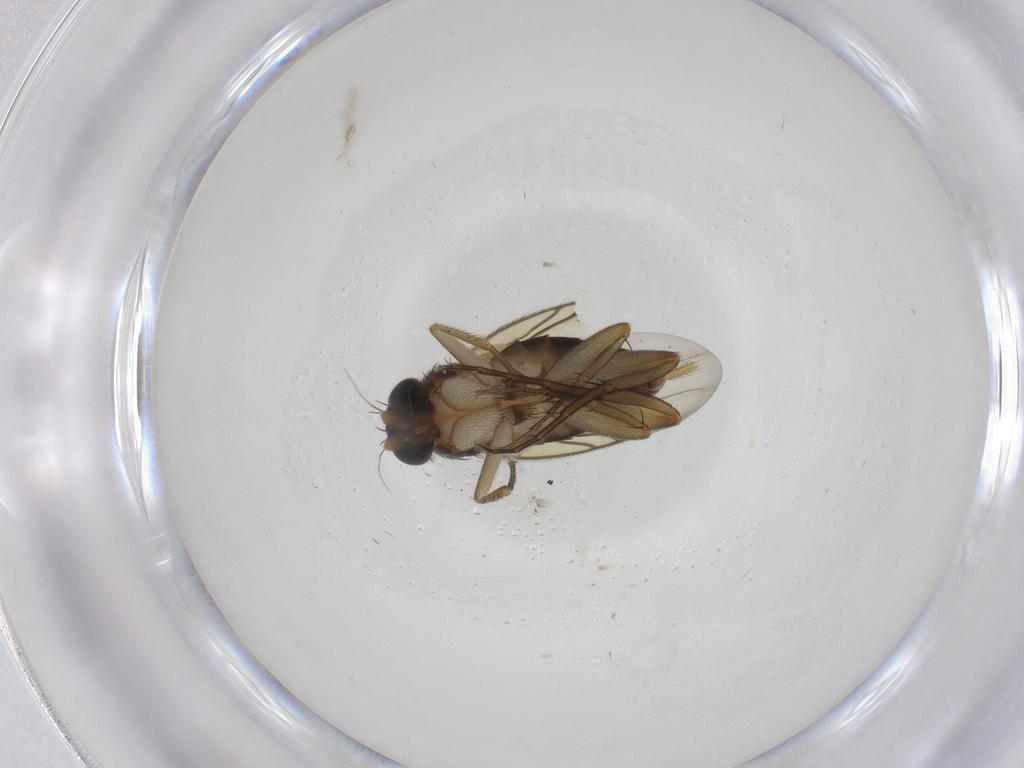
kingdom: Animalia
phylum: Arthropoda
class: Insecta
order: Diptera
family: Phoridae
